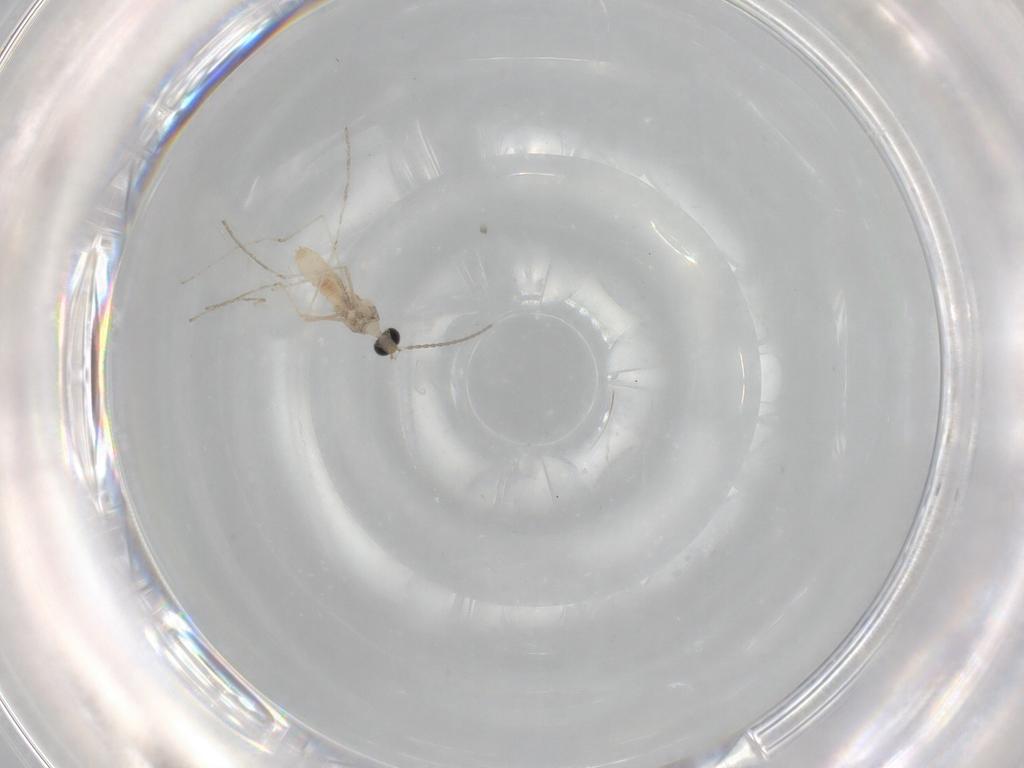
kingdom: Animalia
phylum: Arthropoda
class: Insecta
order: Diptera
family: Cecidomyiidae
